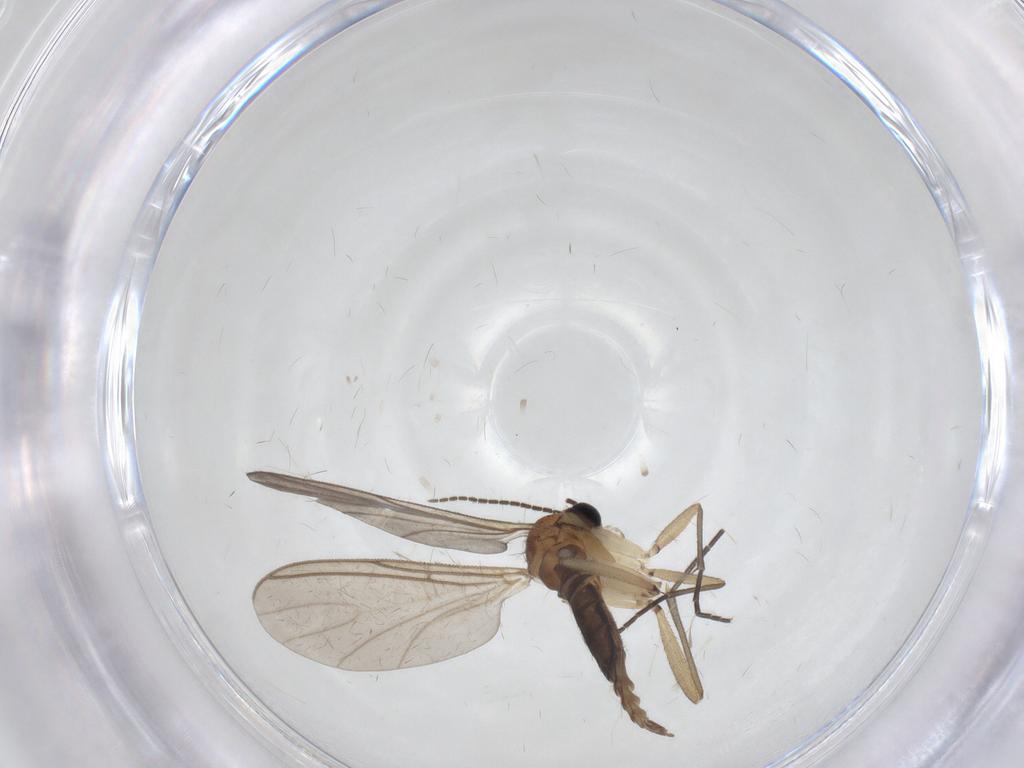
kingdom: Animalia
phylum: Arthropoda
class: Insecta
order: Diptera
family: Sciaridae
